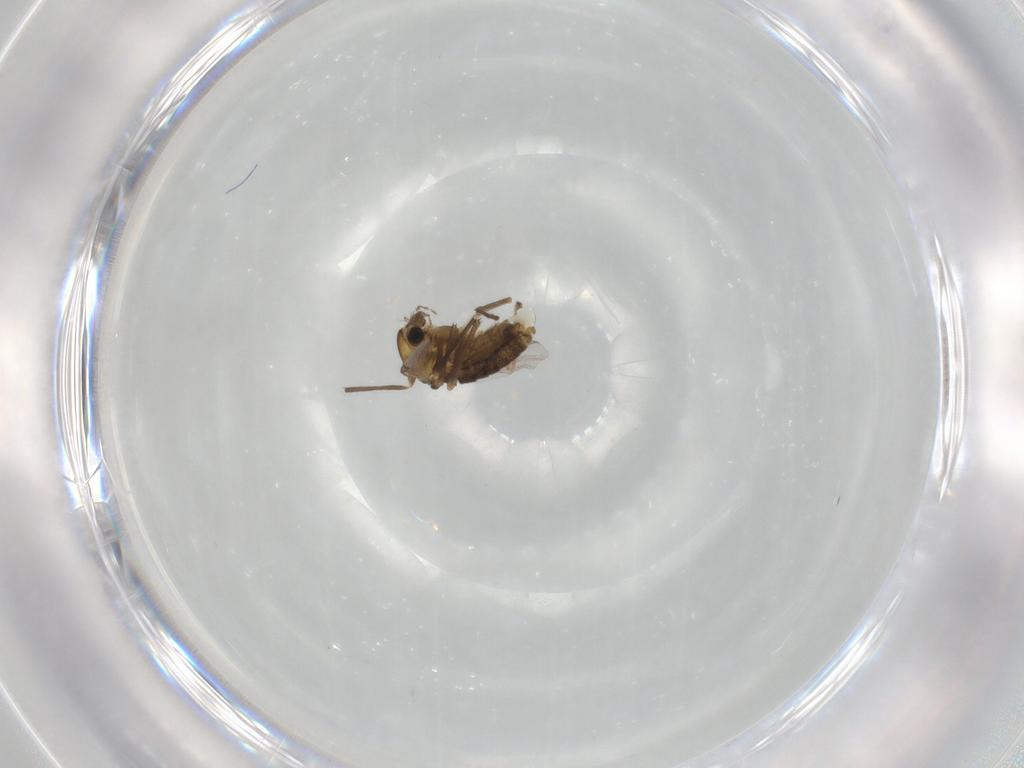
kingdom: Animalia
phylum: Arthropoda
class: Insecta
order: Diptera
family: Chironomidae
